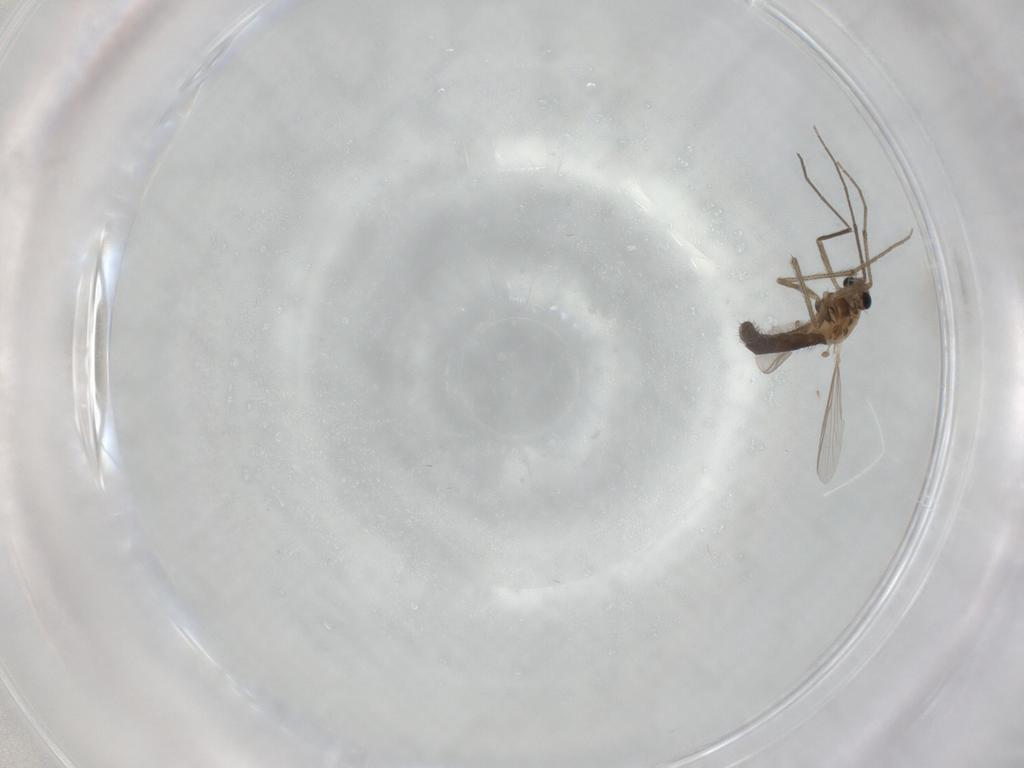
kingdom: Animalia
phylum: Arthropoda
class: Insecta
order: Diptera
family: Chironomidae
